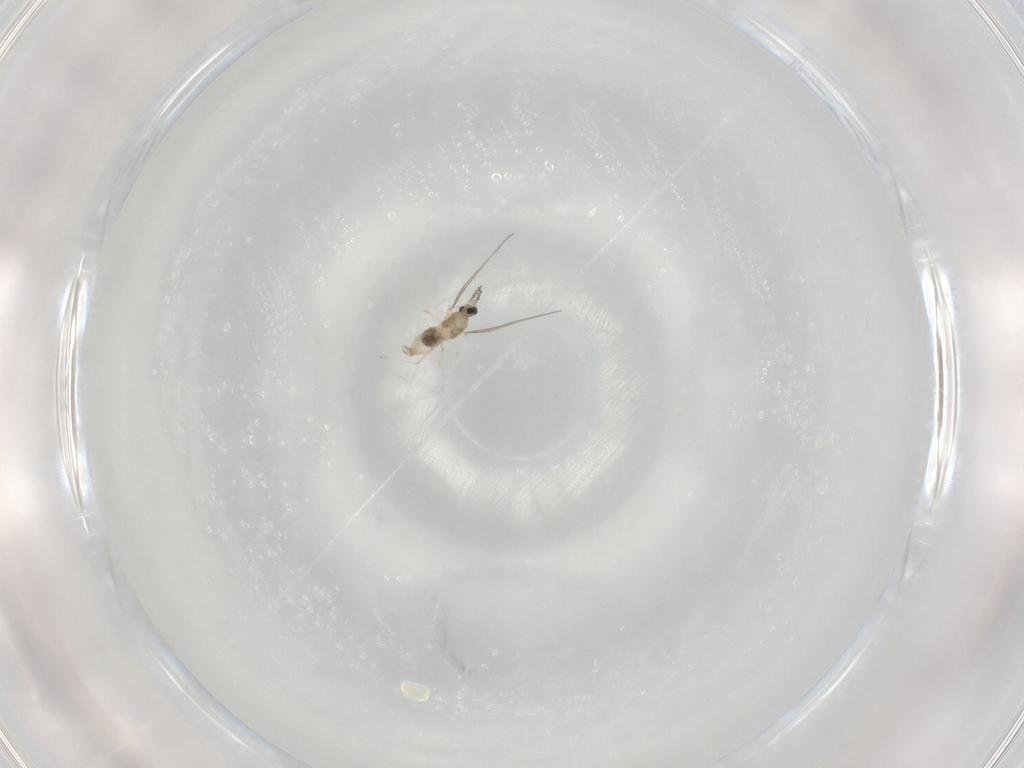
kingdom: Animalia
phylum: Arthropoda
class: Insecta
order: Diptera
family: Cecidomyiidae
